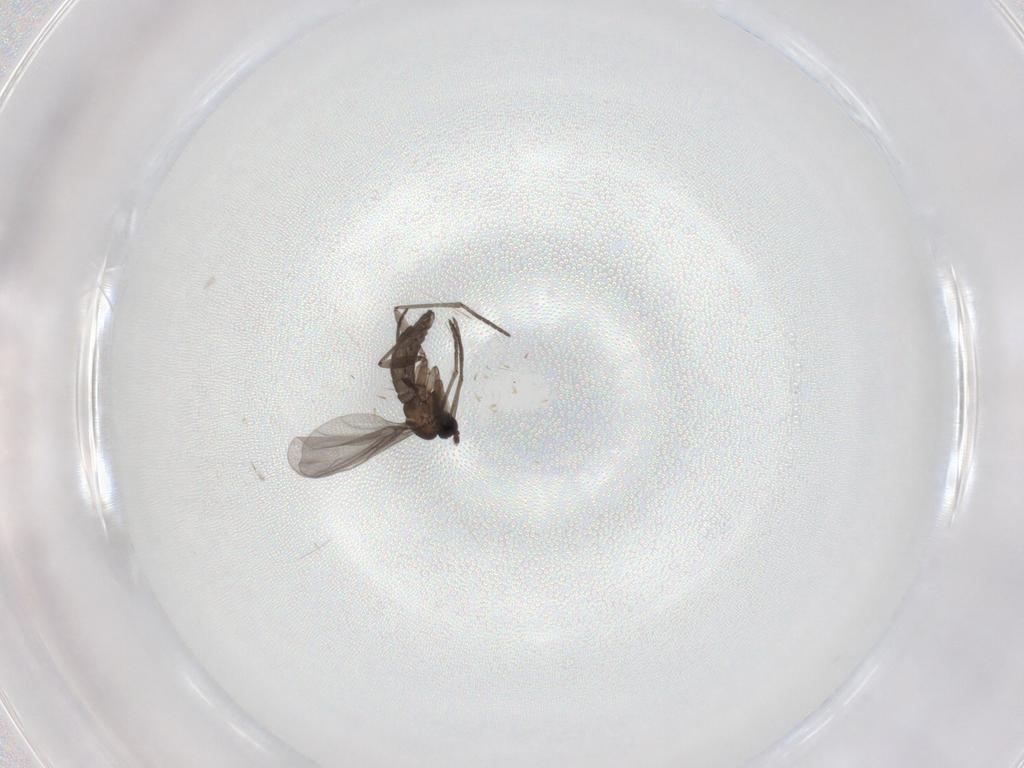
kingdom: Animalia
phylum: Arthropoda
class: Insecta
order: Diptera
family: Chironomidae
